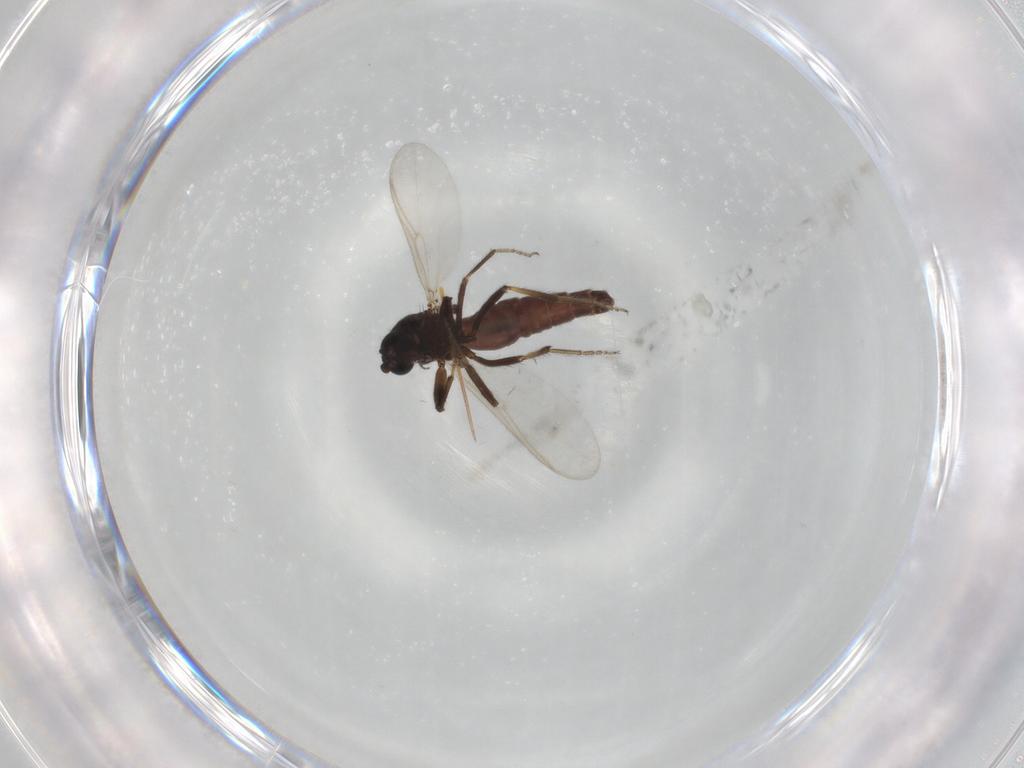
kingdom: Animalia
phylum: Arthropoda
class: Insecta
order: Diptera
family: Ceratopogonidae
